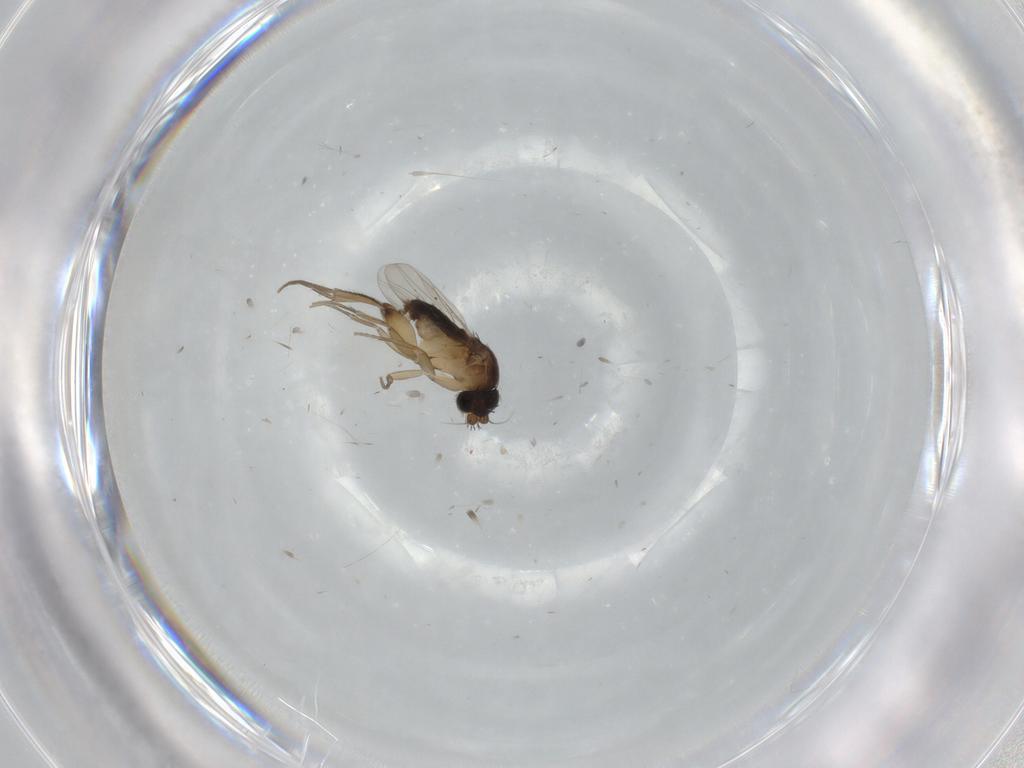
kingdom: Animalia
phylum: Arthropoda
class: Insecta
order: Diptera
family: Phoridae
